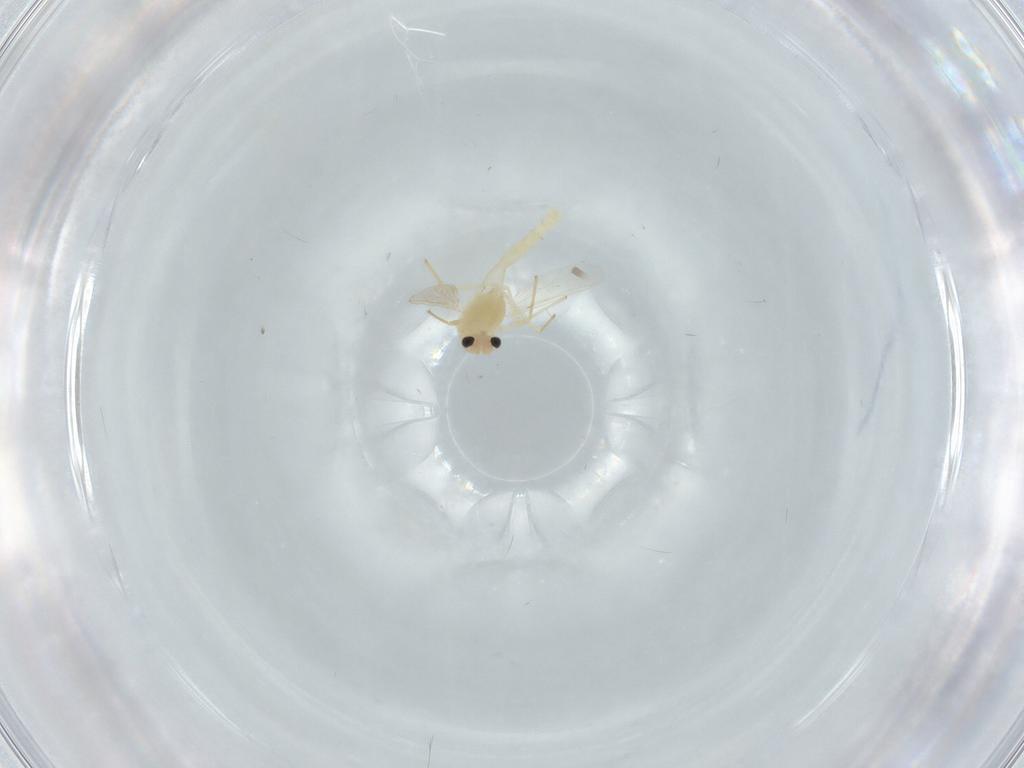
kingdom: Animalia
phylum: Arthropoda
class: Insecta
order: Diptera
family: Chironomidae
